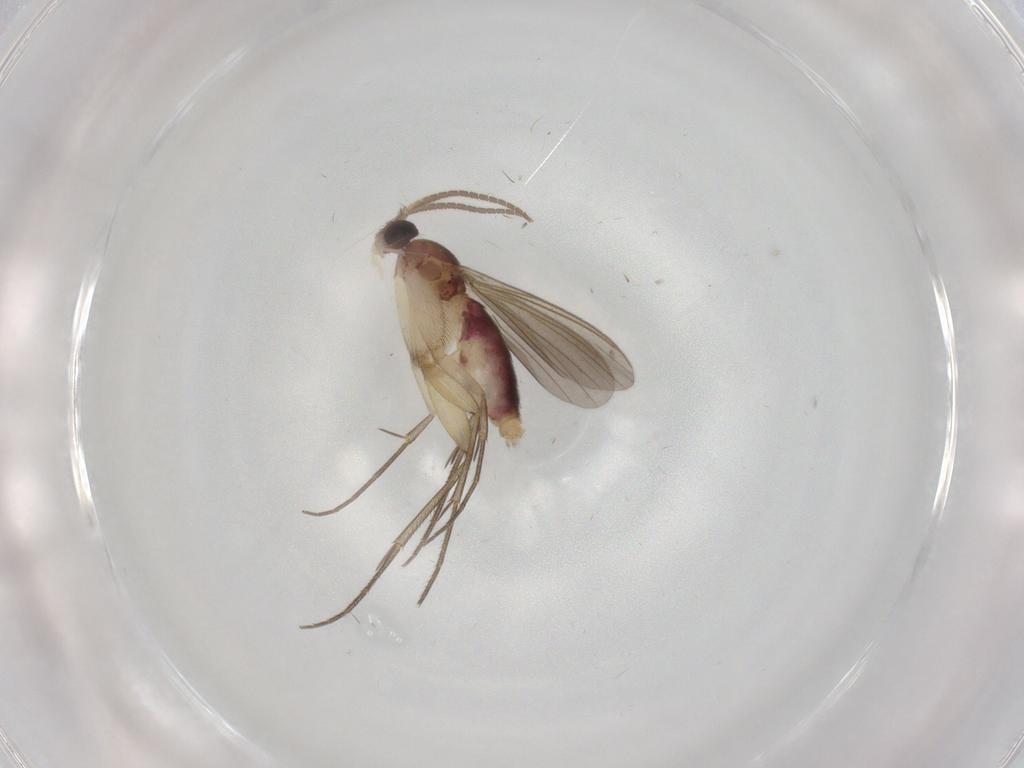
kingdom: Animalia
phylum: Arthropoda
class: Insecta
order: Diptera
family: Mycetophilidae
